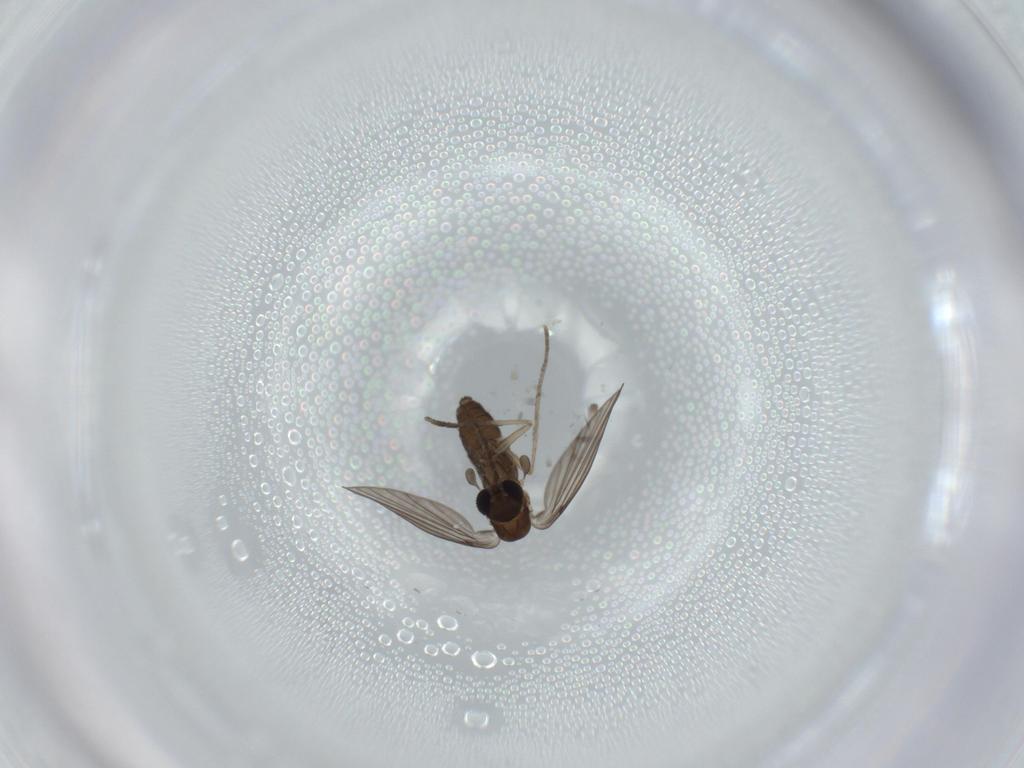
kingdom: Animalia
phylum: Arthropoda
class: Insecta
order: Diptera
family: Psychodidae
